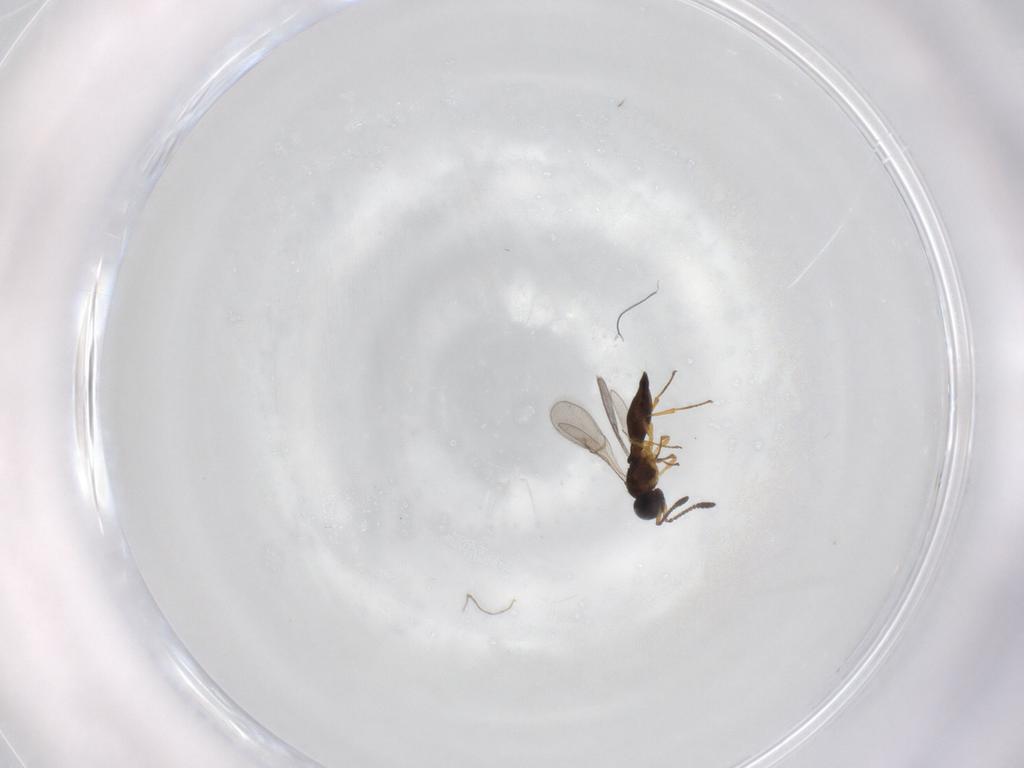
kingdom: Animalia
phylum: Arthropoda
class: Insecta
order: Hymenoptera
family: Scelionidae
